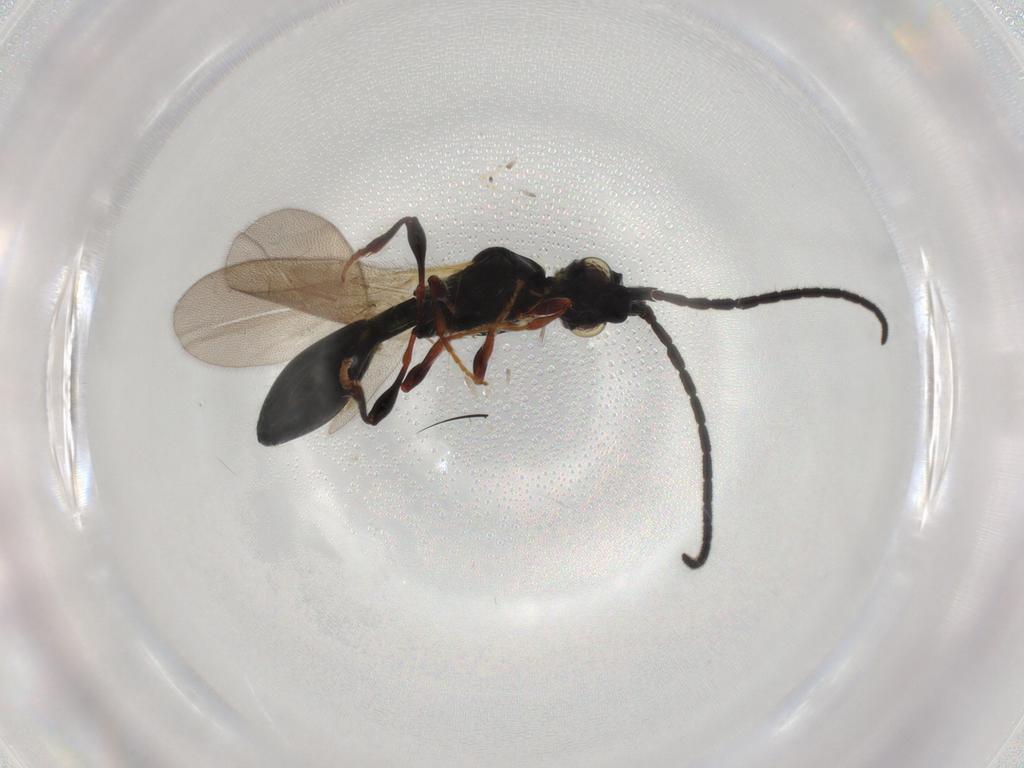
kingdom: Animalia
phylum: Arthropoda
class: Insecta
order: Hymenoptera
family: Diapriidae
